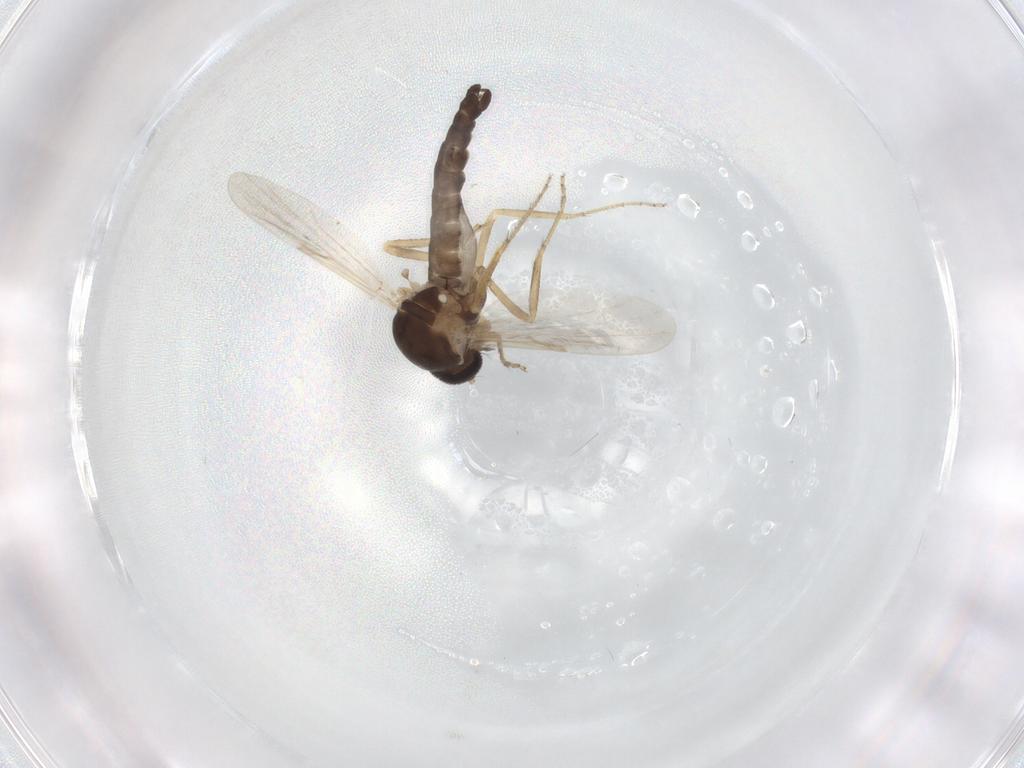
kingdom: Animalia
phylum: Arthropoda
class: Insecta
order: Diptera
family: Ceratopogonidae
